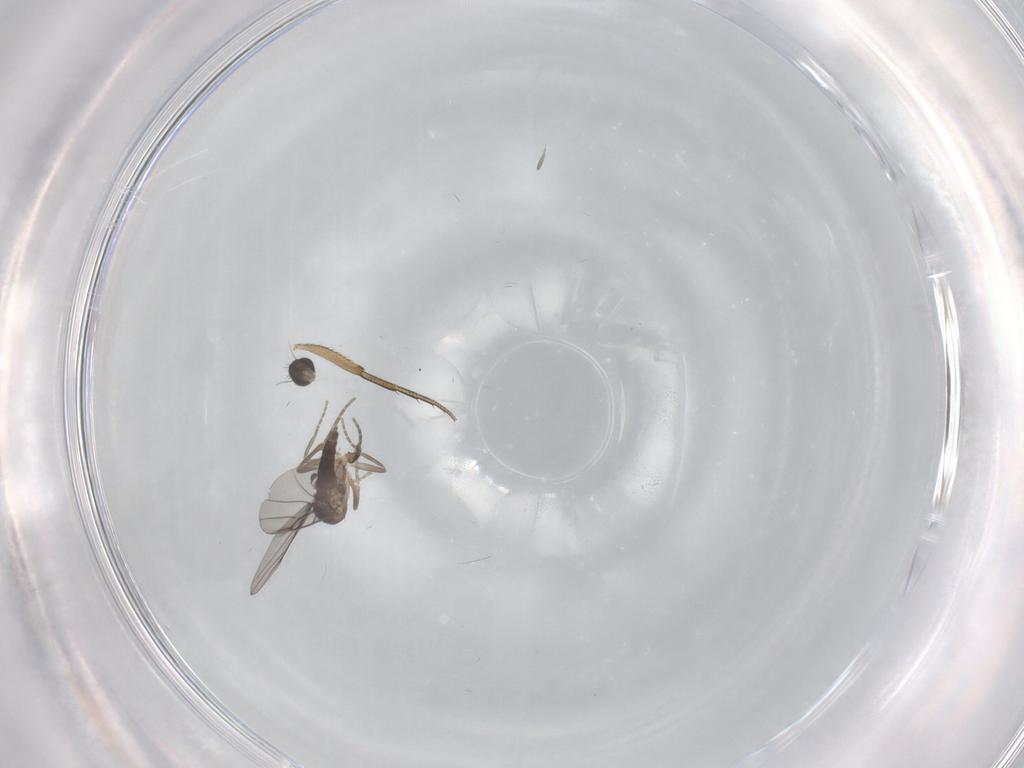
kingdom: Animalia
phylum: Arthropoda
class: Insecta
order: Diptera
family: Phoridae
